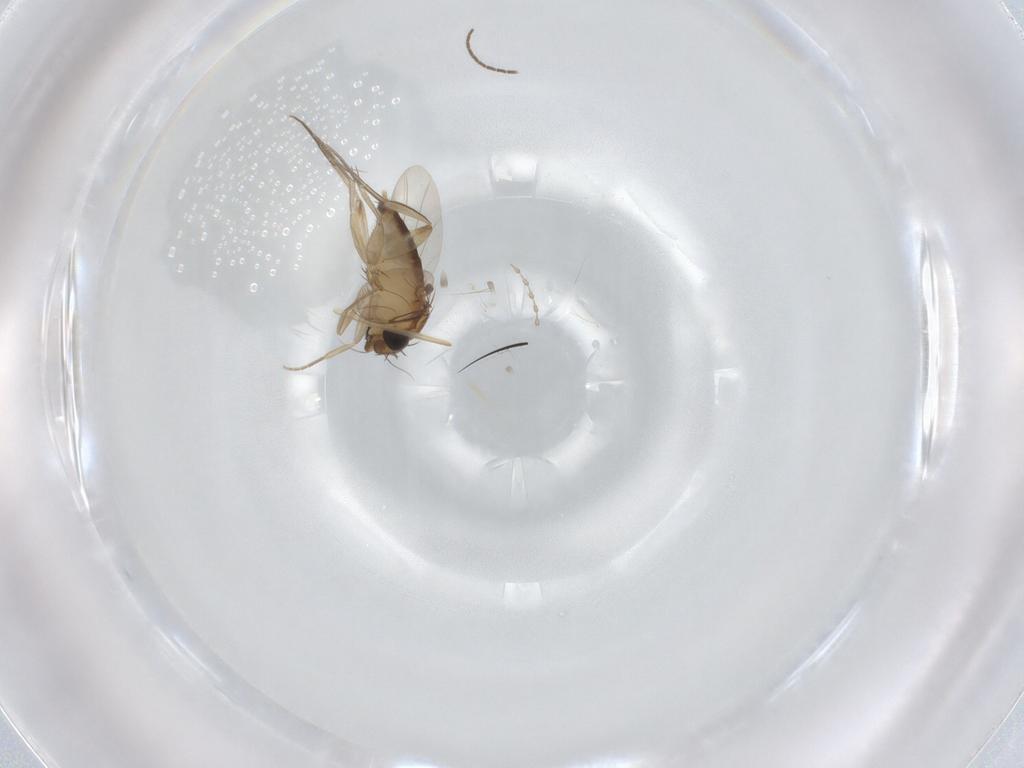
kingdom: Animalia
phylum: Arthropoda
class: Insecta
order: Diptera
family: Phoridae
